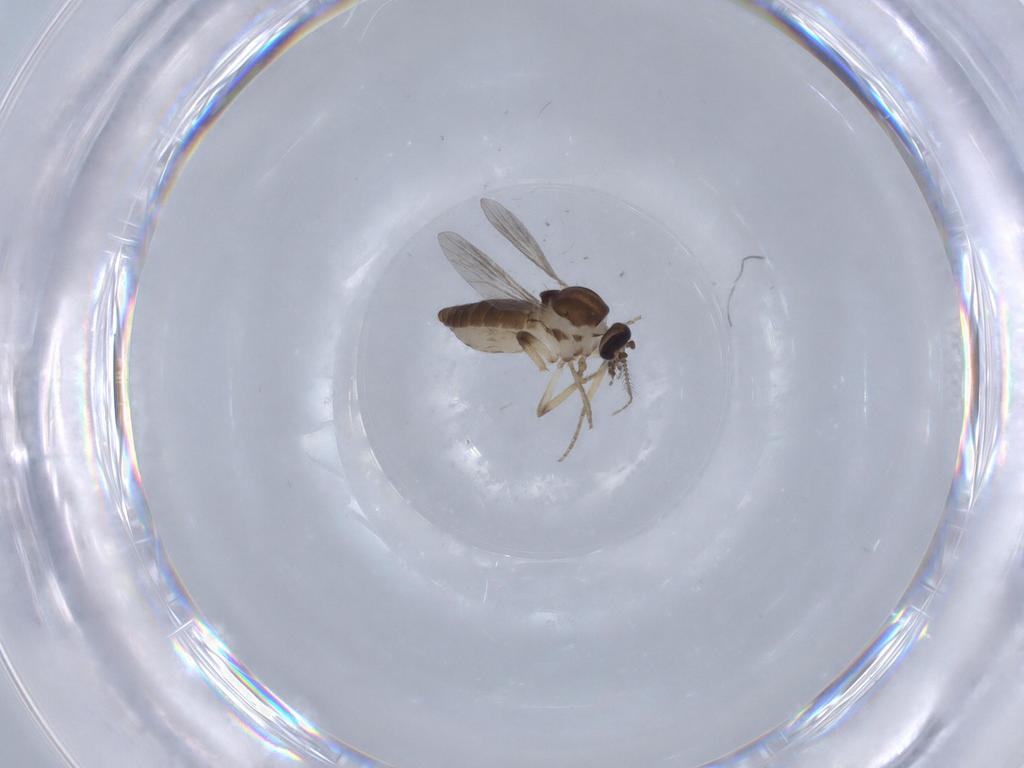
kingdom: Animalia
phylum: Arthropoda
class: Insecta
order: Diptera
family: Ceratopogonidae
